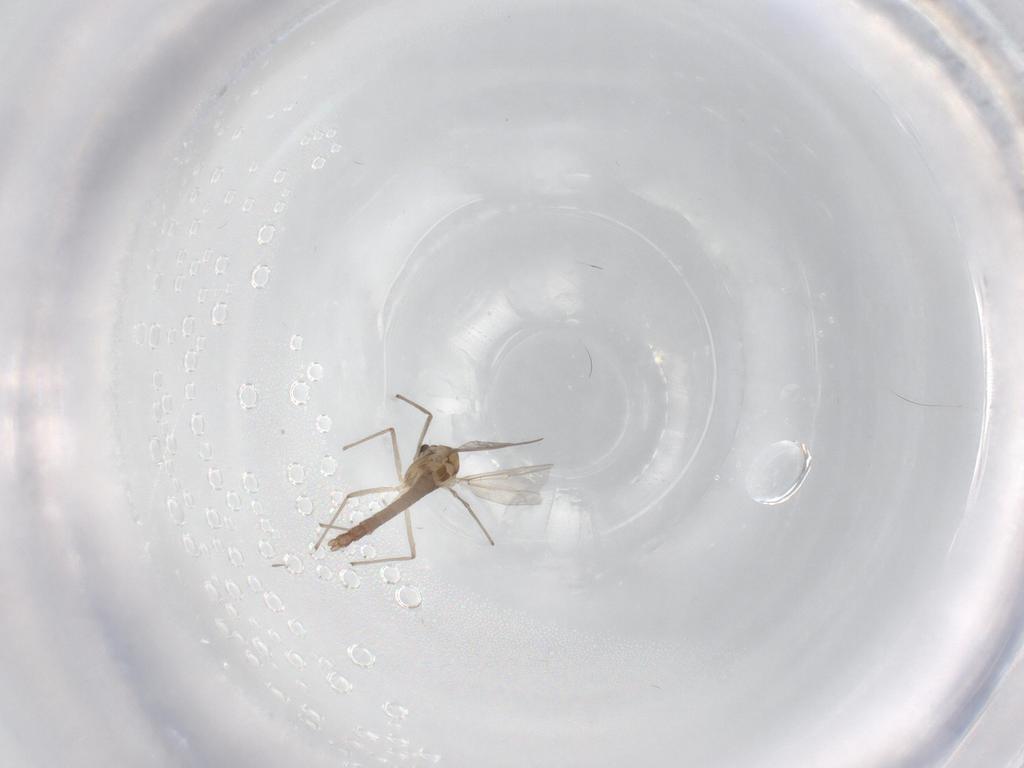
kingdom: Animalia
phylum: Arthropoda
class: Insecta
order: Diptera
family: Chironomidae
